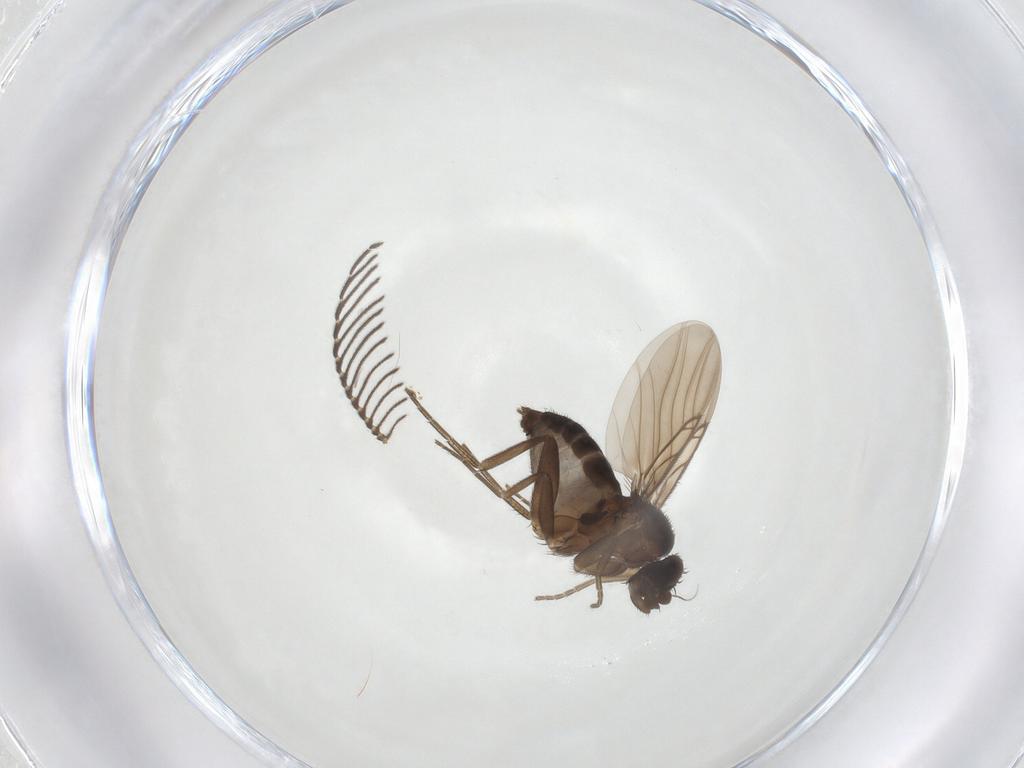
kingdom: Animalia
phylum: Arthropoda
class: Insecta
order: Diptera
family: Phoridae
